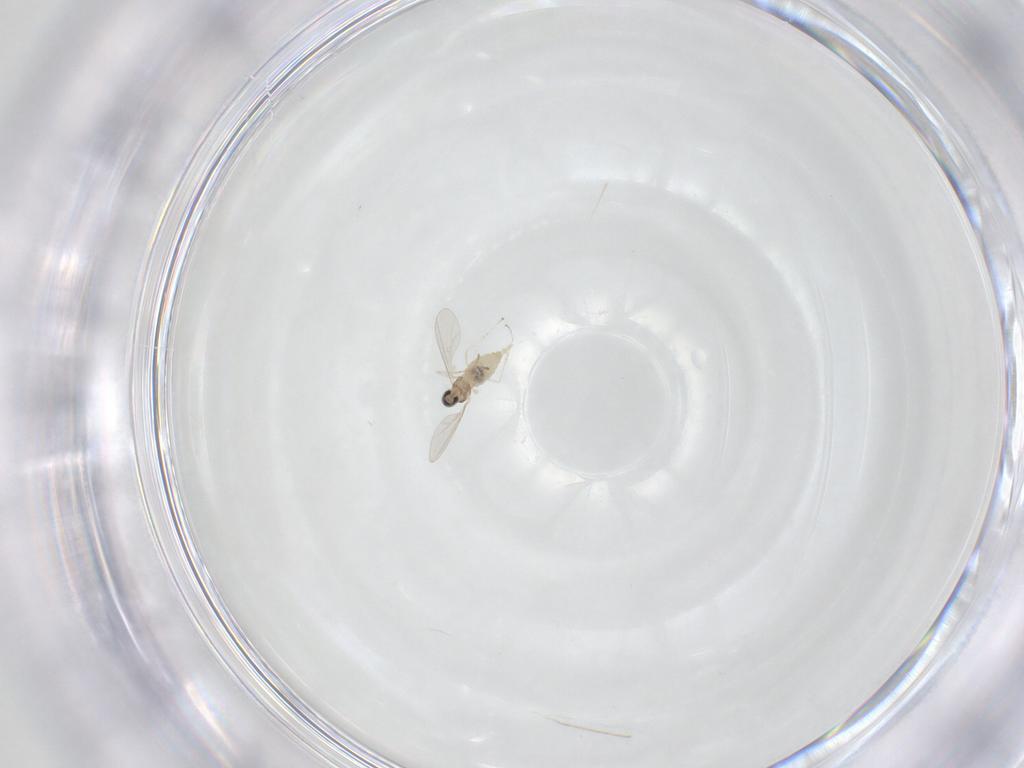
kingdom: Animalia
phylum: Arthropoda
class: Insecta
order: Diptera
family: Cecidomyiidae
